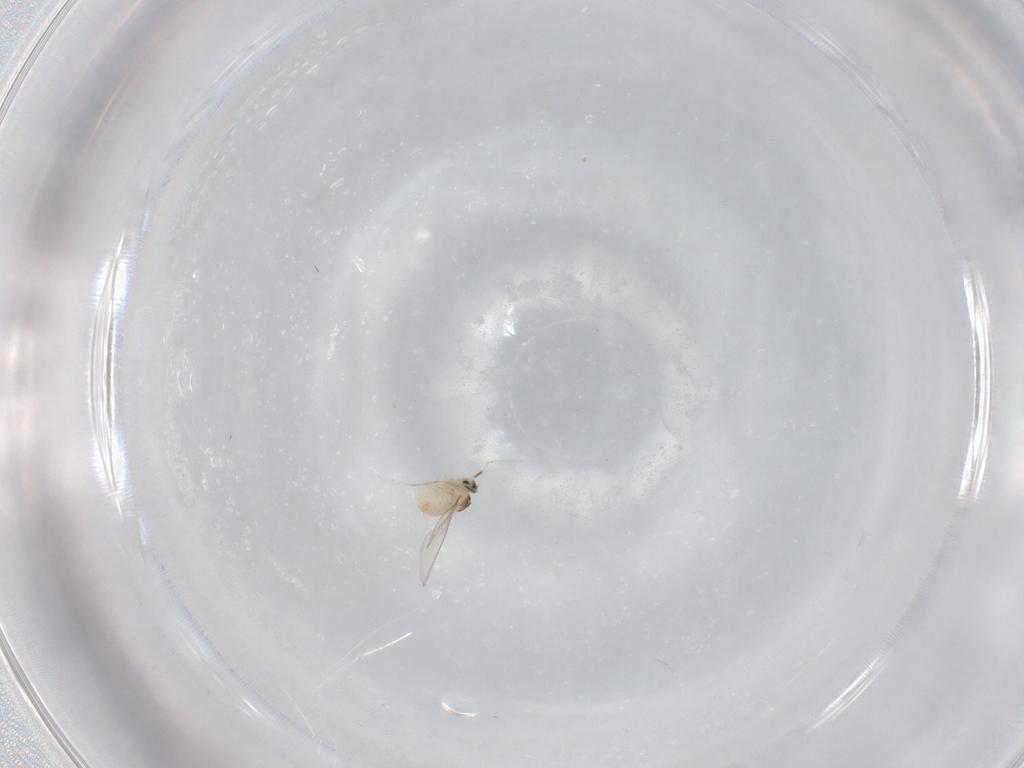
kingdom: Animalia
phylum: Arthropoda
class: Insecta
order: Diptera
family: Cecidomyiidae
